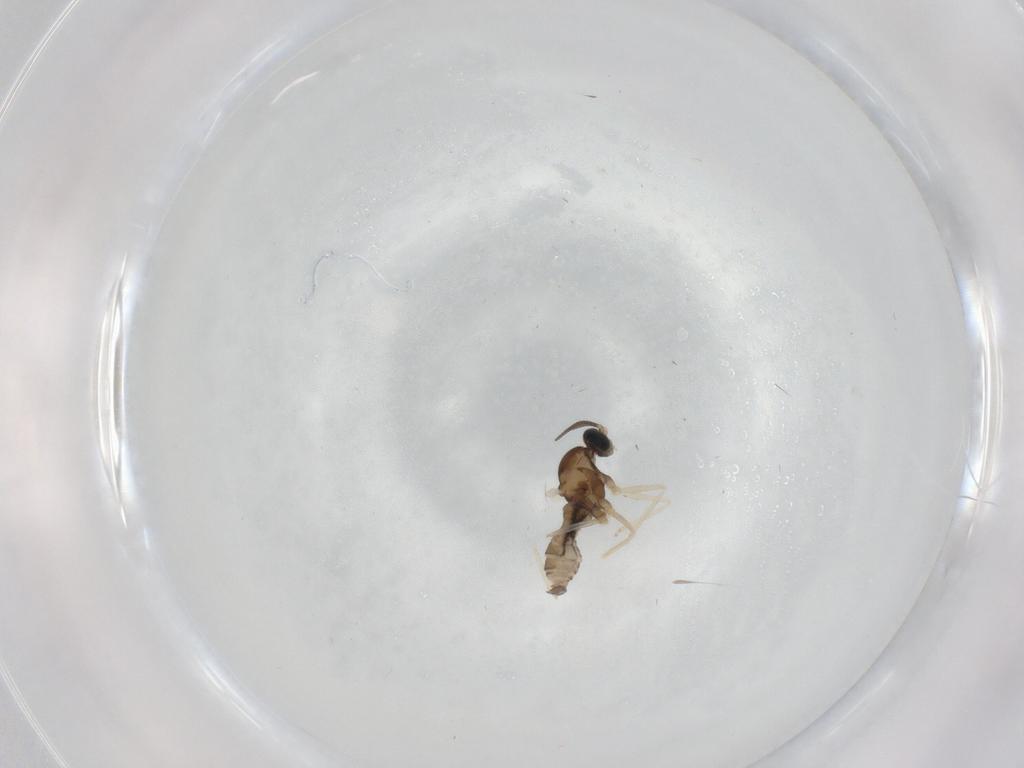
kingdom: Animalia
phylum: Arthropoda
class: Insecta
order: Diptera
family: Cecidomyiidae
